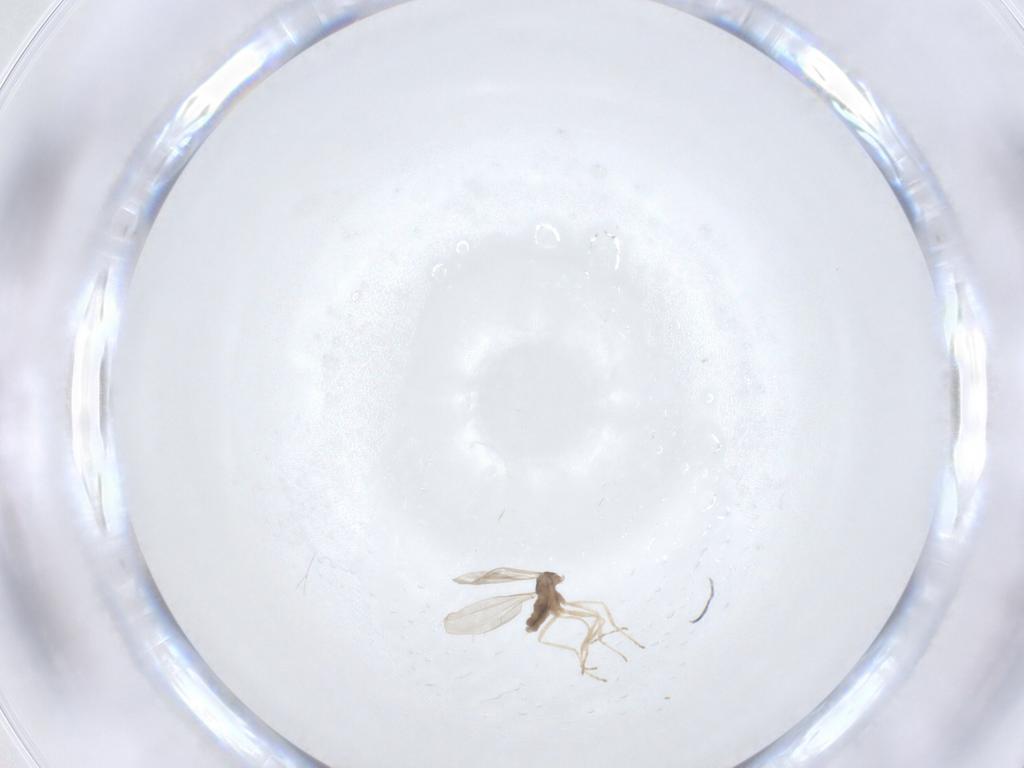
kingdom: Animalia
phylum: Arthropoda
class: Insecta
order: Diptera
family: Cecidomyiidae
